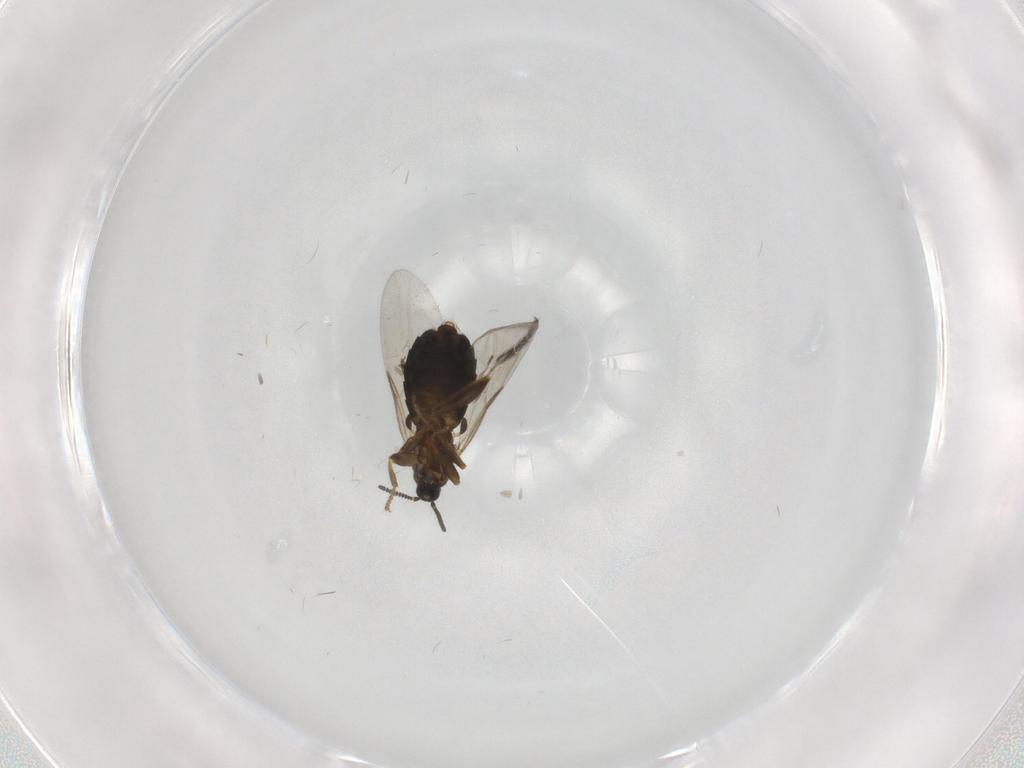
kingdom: Animalia
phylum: Arthropoda
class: Insecta
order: Diptera
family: Scatopsidae
